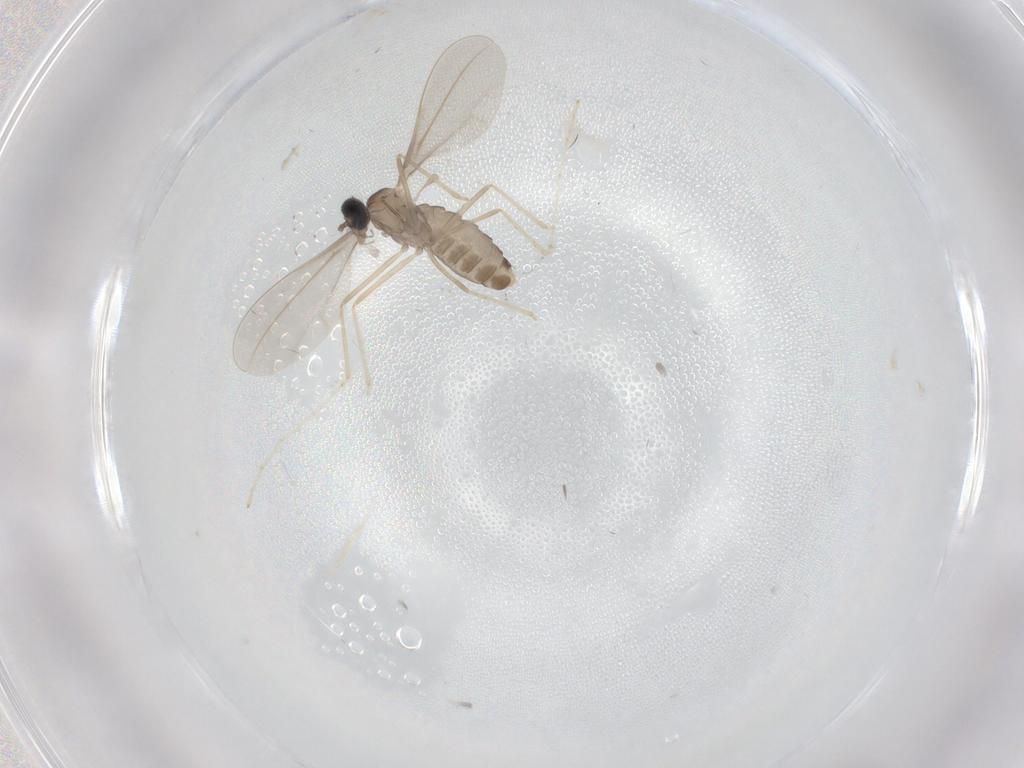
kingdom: Animalia
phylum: Arthropoda
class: Insecta
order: Diptera
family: Cecidomyiidae
